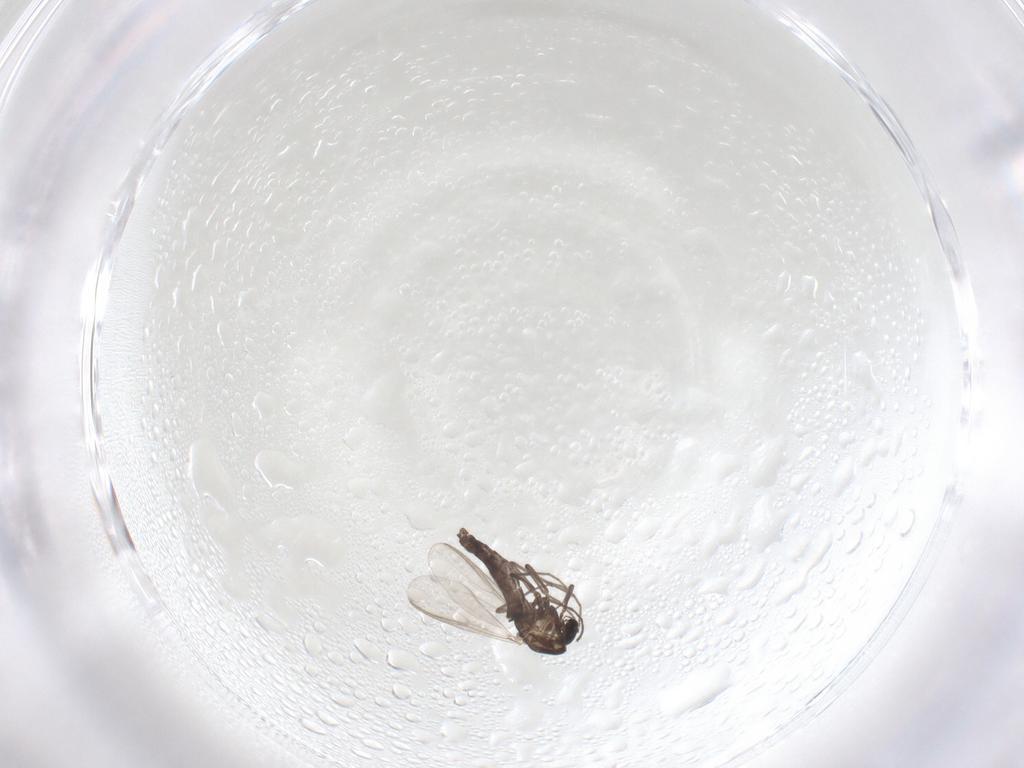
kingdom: Animalia
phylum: Arthropoda
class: Insecta
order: Diptera
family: Chironomidae
